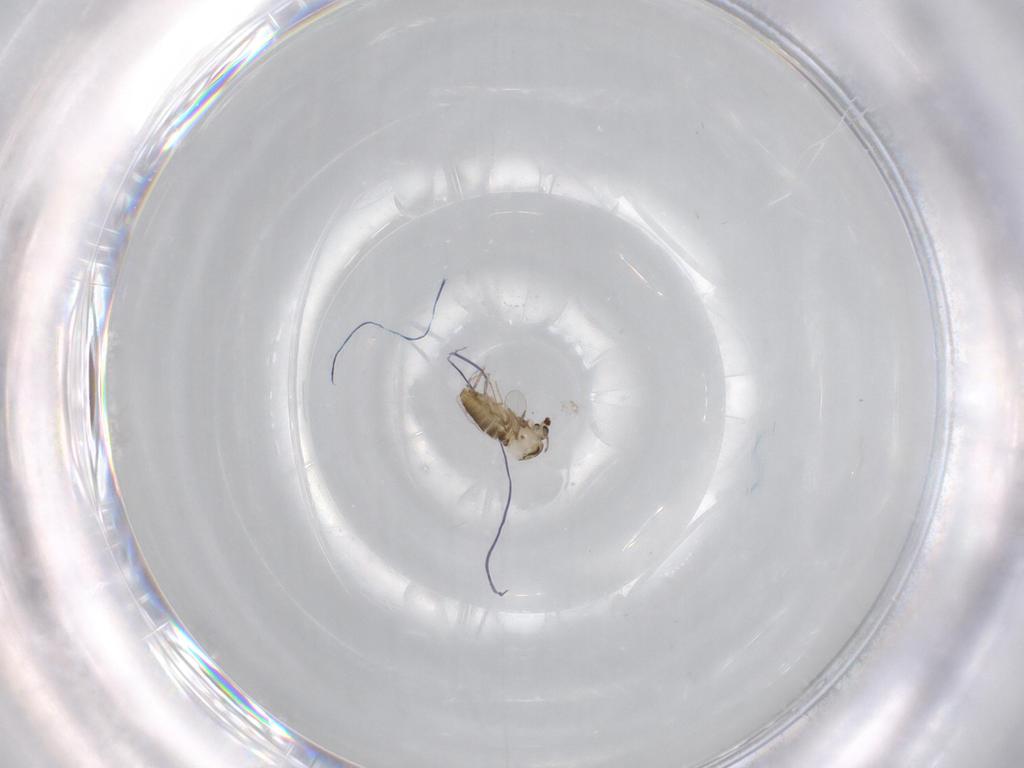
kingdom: Animalia
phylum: Arthropoda
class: Insecta
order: Diptera
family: Chironomidae
